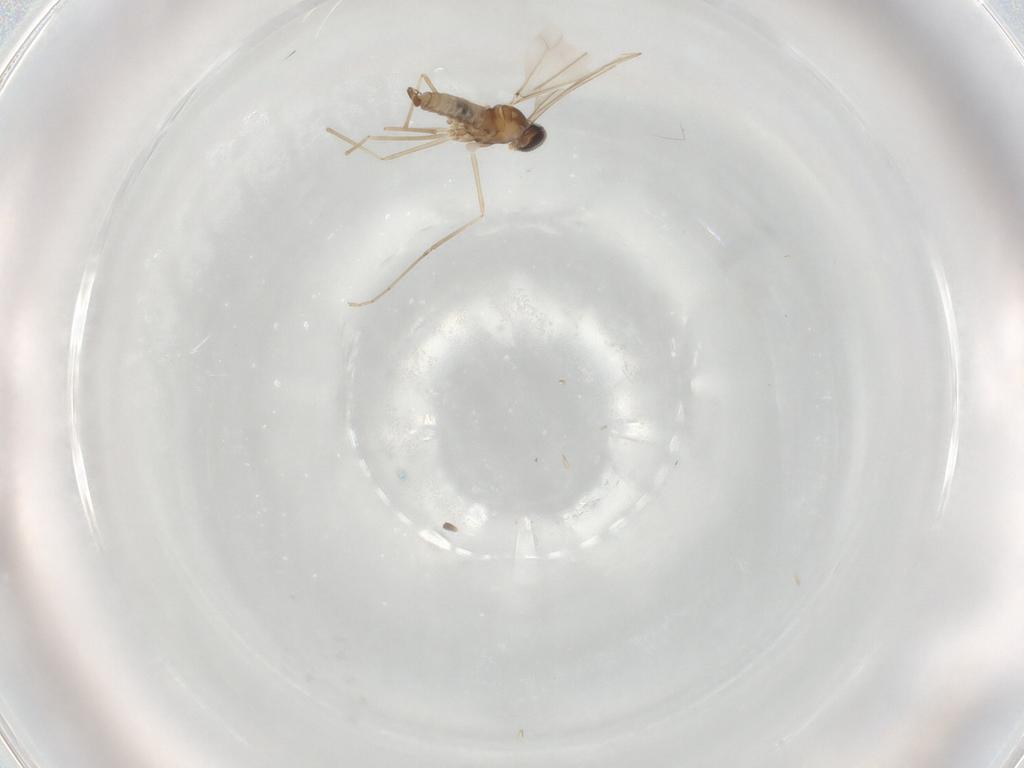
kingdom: Animalia
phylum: Arthropoda
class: Insecta
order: Diptera
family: Cecidomyiidae
